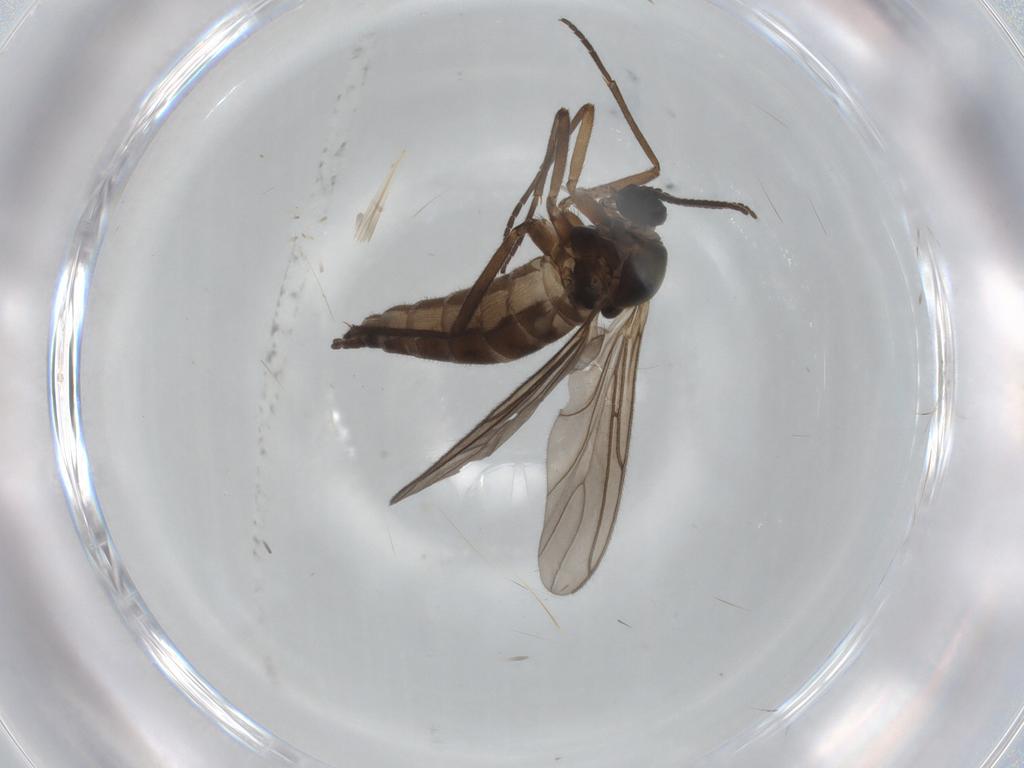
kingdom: Animalia
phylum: Arthropoda
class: Insecta
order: Diptera
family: Sciaridae
